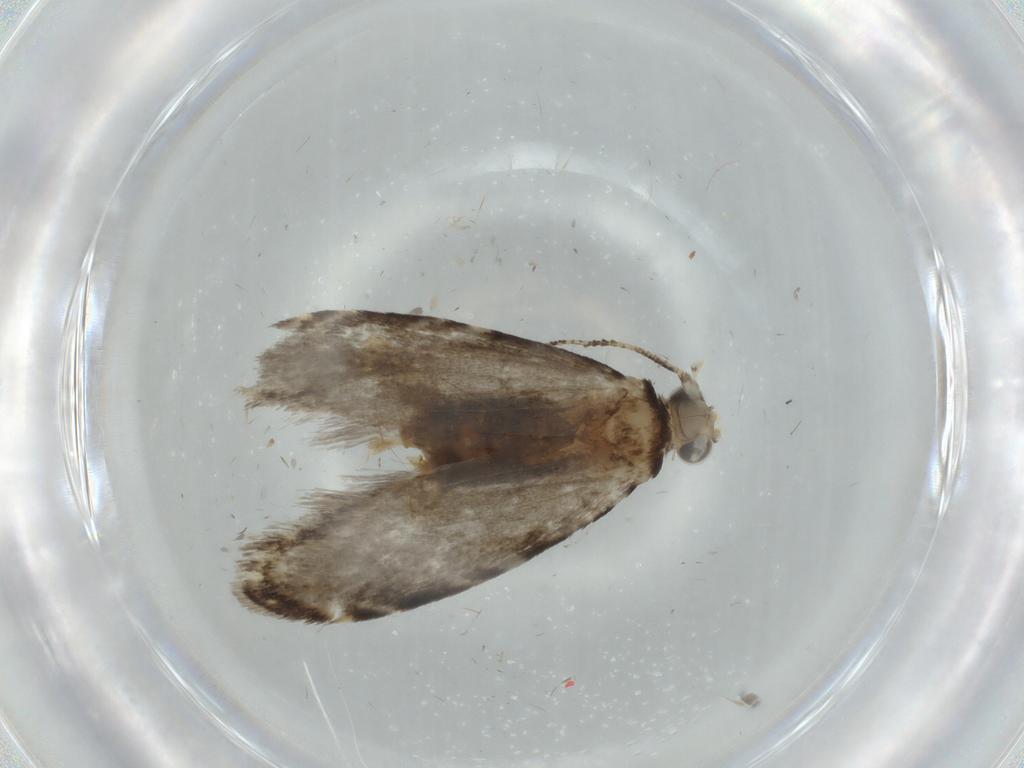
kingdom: Animalia
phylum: Arthropoda
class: Insecta
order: Lepidoptera
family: Tineidae
